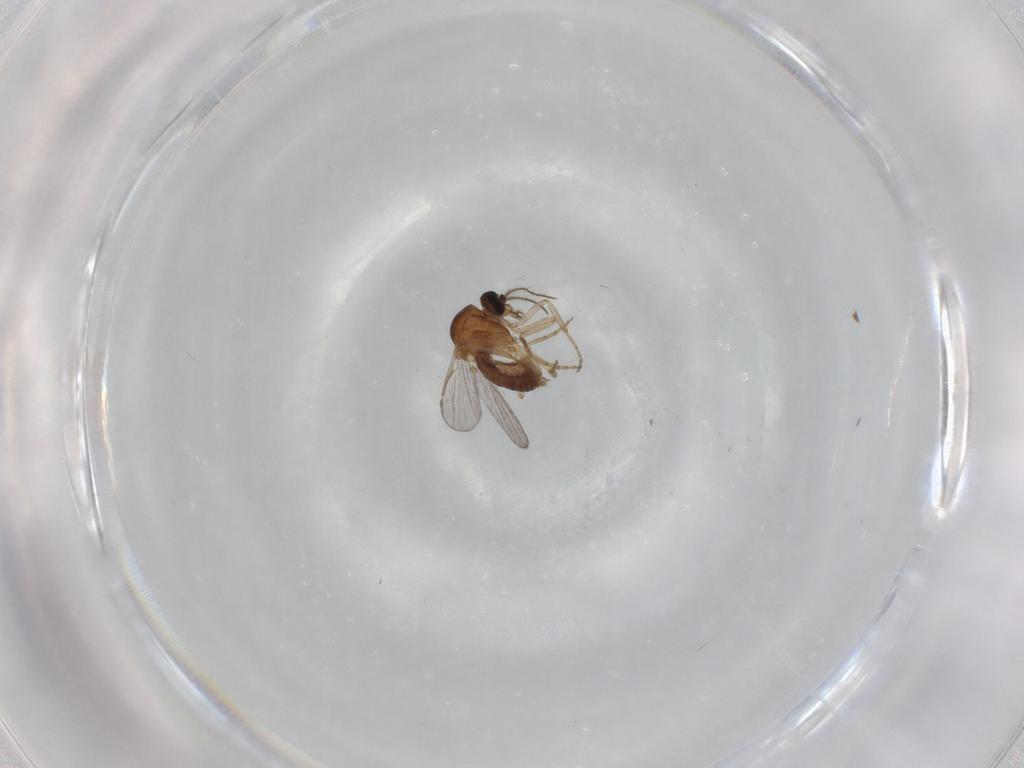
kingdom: Animalia
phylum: Arthropoda
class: Insecta
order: Diptera
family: Ceratopogonidae
